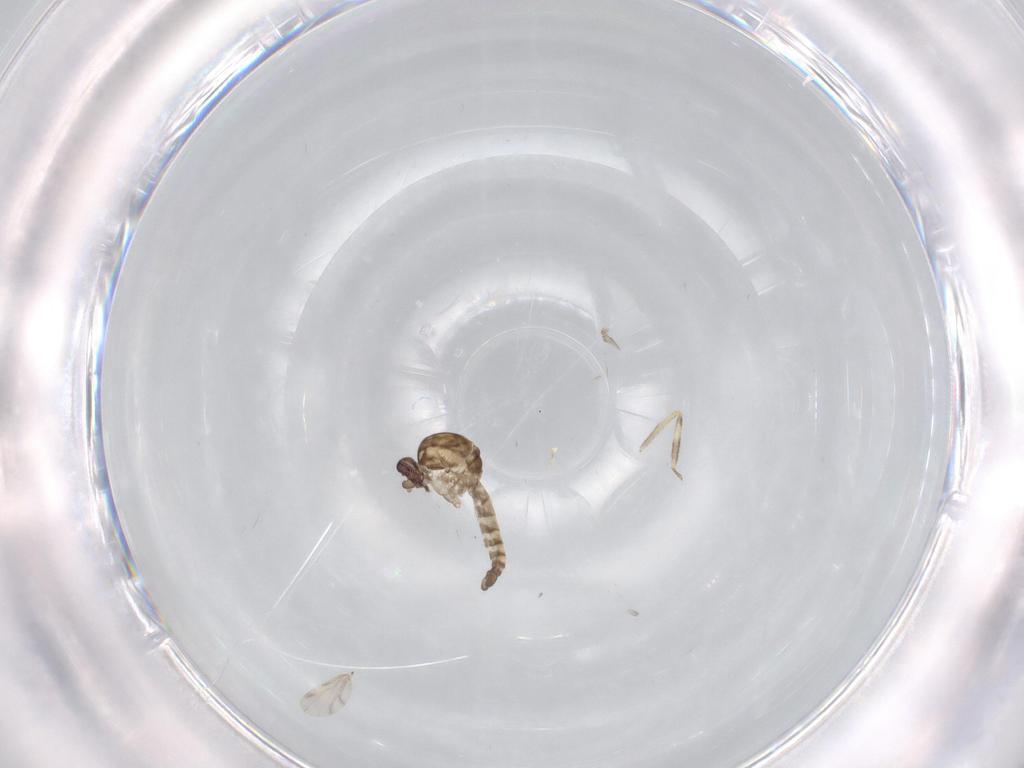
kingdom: Animalia
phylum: Arthropoda
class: Insecta
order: Diptera
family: Ceratopogonidae
